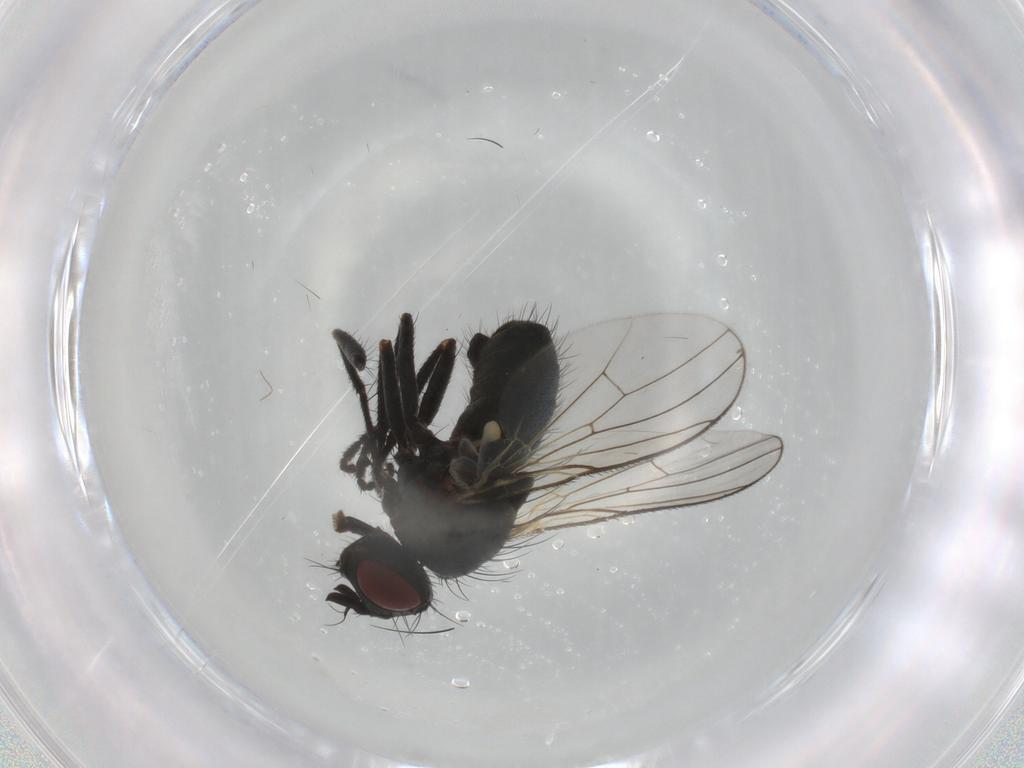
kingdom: Animalia
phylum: Arthropoda
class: Insecta
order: Diptera
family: Muscidae
